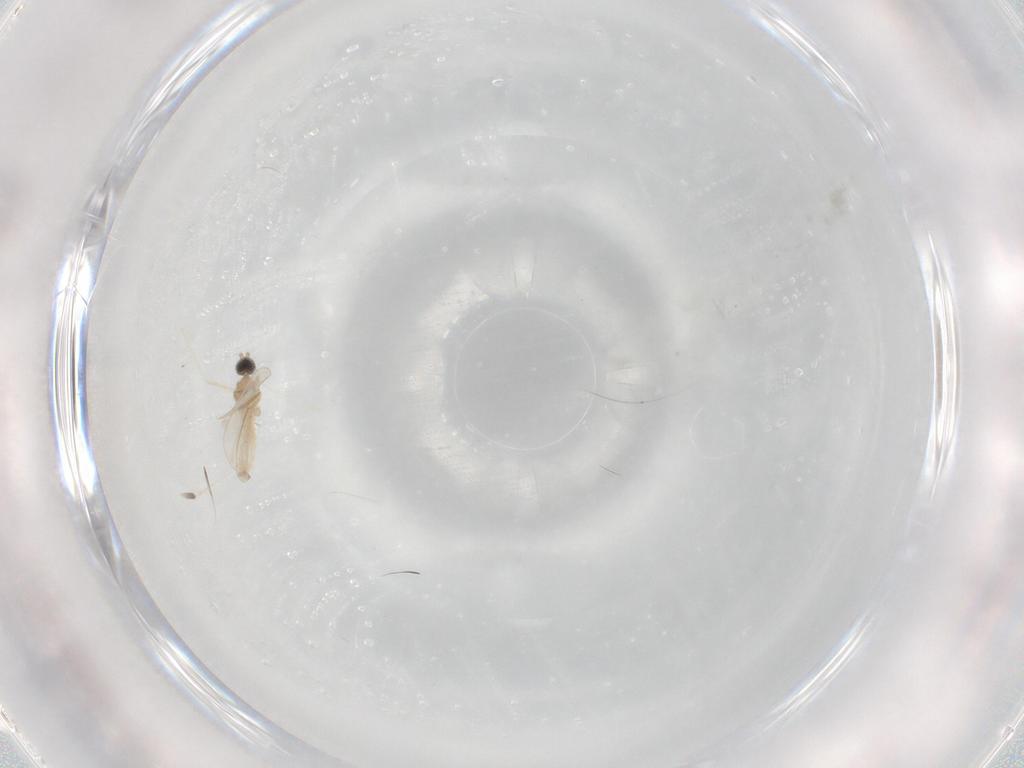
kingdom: Animalia
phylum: Arthropoda
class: Insecta
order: Diptera
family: Cecidomyiidae
